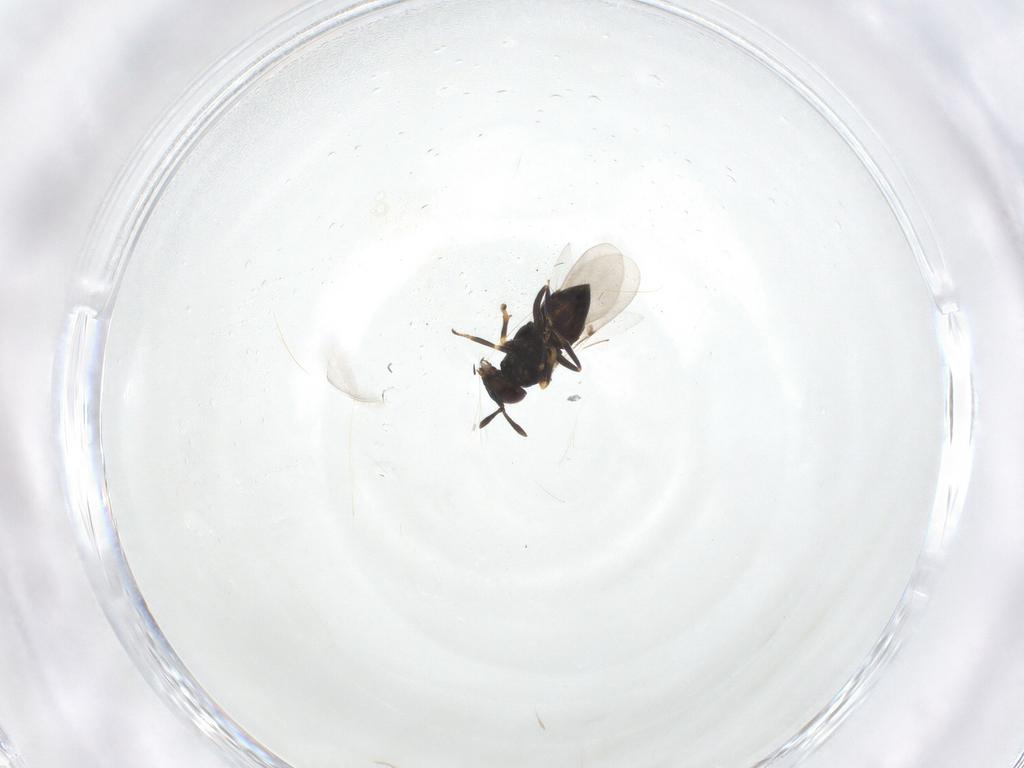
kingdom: Animalia
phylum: Arthropoda
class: Insecta
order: Hymenoptera
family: Encyrtidae
